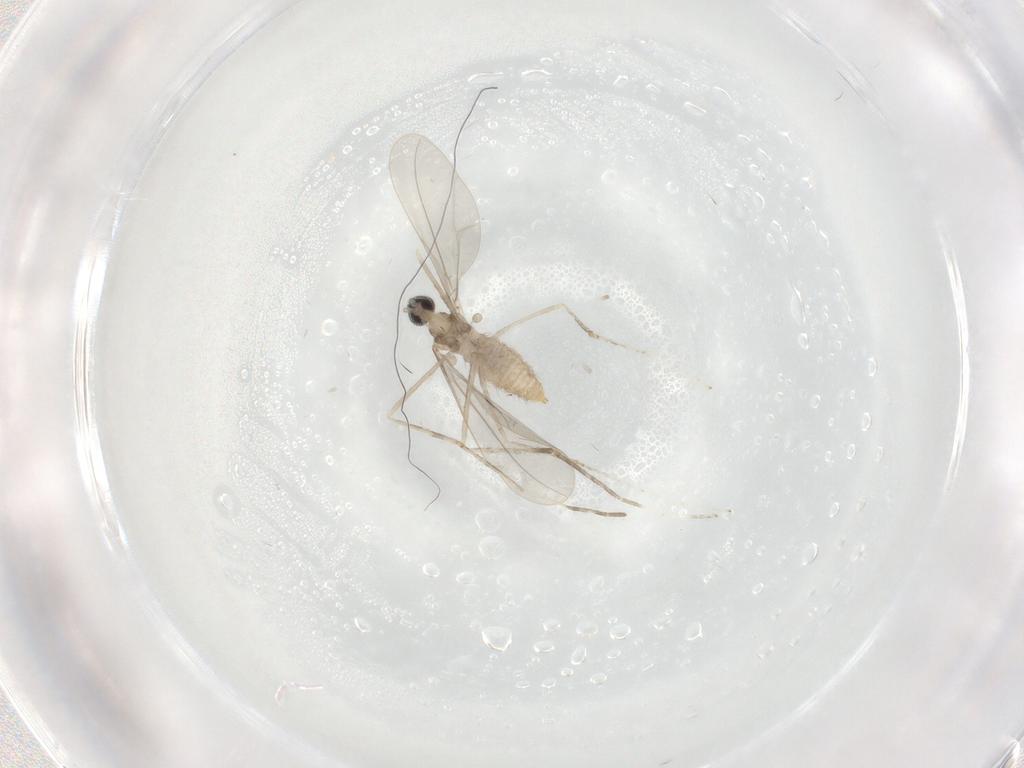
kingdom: Animalia
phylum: Arthropoda
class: Insecta
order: Diptera
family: Cecidomyiidae
